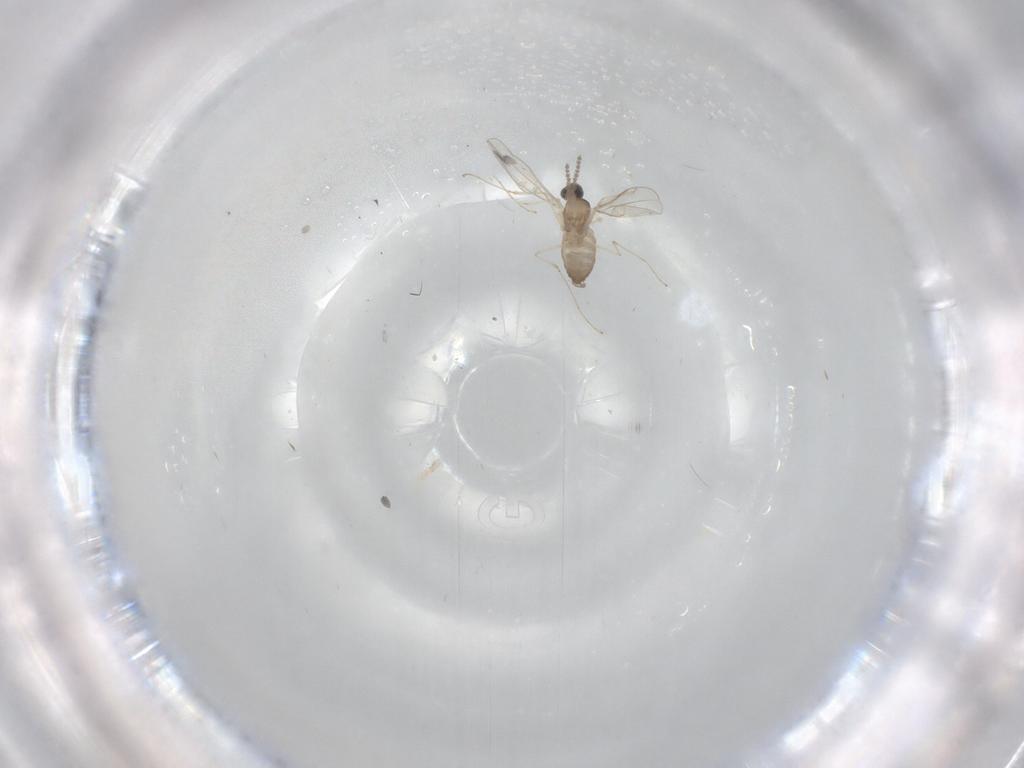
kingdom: Animalia
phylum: Arthropoda
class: Insecta
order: Diptera
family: Cecidomyiidae
